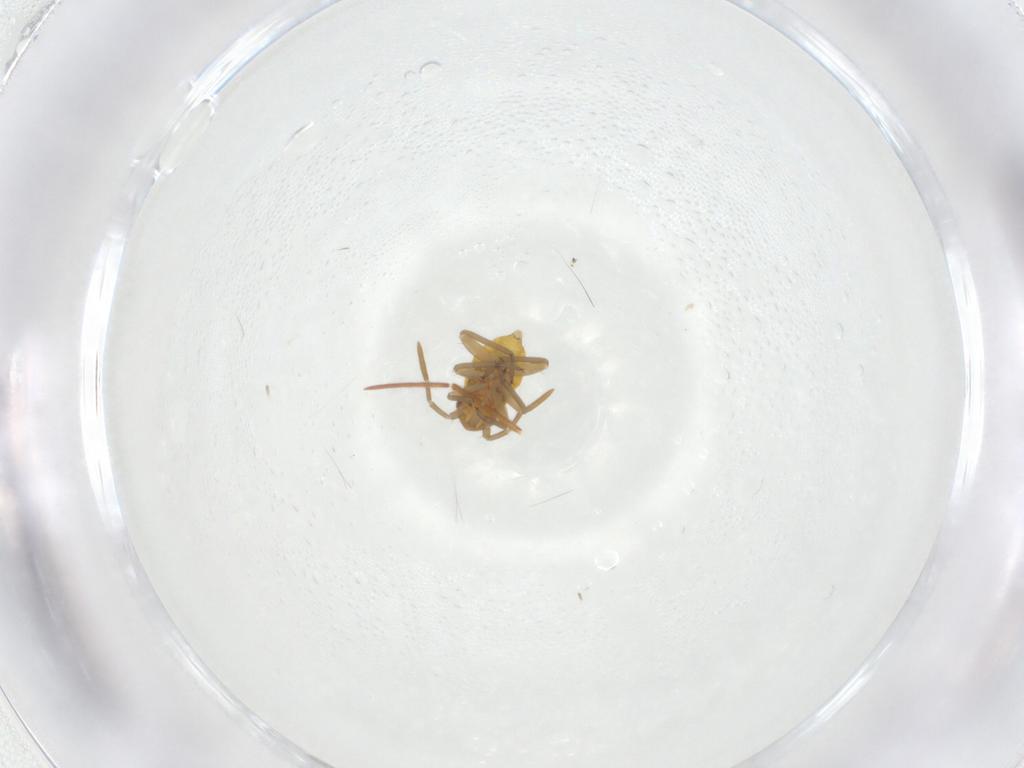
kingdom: Animalia
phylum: Arthropoda
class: Insecta
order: Hemiptera
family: Miridae
